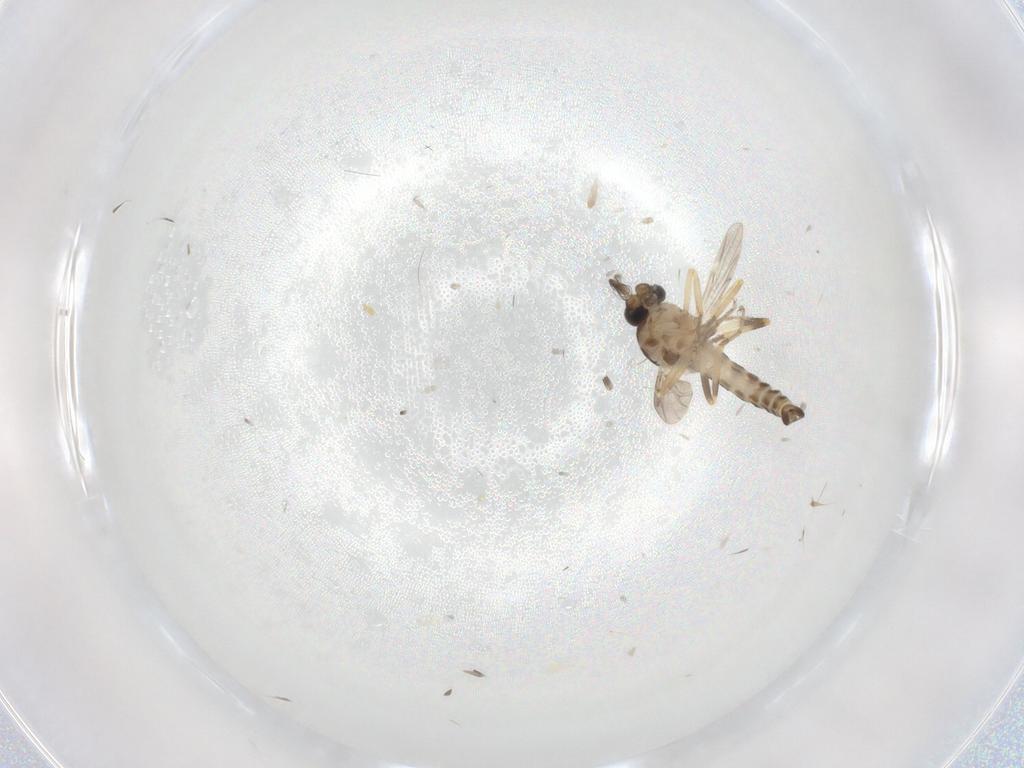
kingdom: Animalia
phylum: Arthropoda
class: Insecta
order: Diptera
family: Ceratopogonidae
